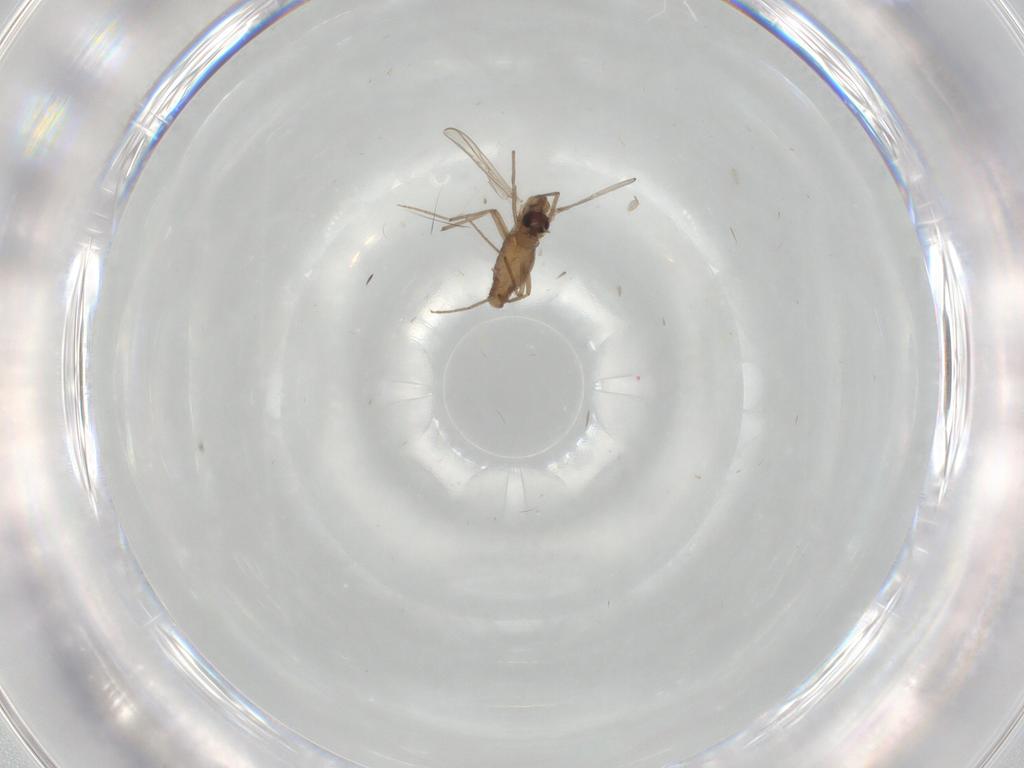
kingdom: Animalia
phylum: Arthropoda
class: Insecta
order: Diptera
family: Chironomidae
